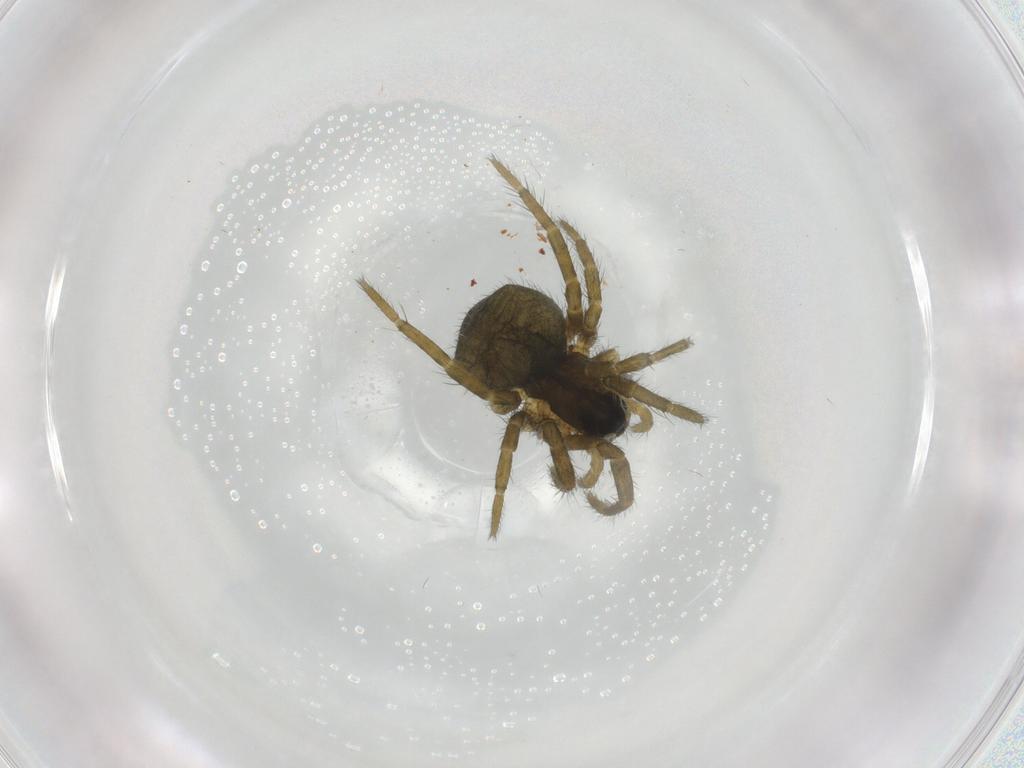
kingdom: Animalia
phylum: Arthropoda
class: Arachnida
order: Araneae
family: Lycosidae
